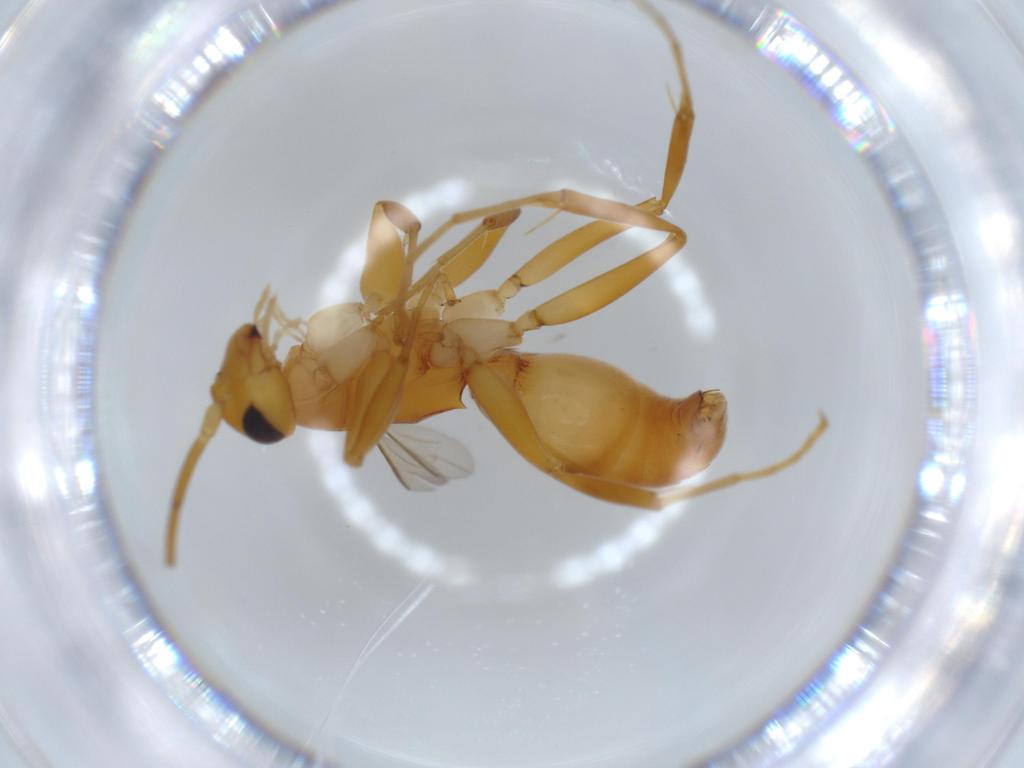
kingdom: Animalia
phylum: Arthropoda
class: Insecta
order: Hymenoptera
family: Rhopalosomatidae
